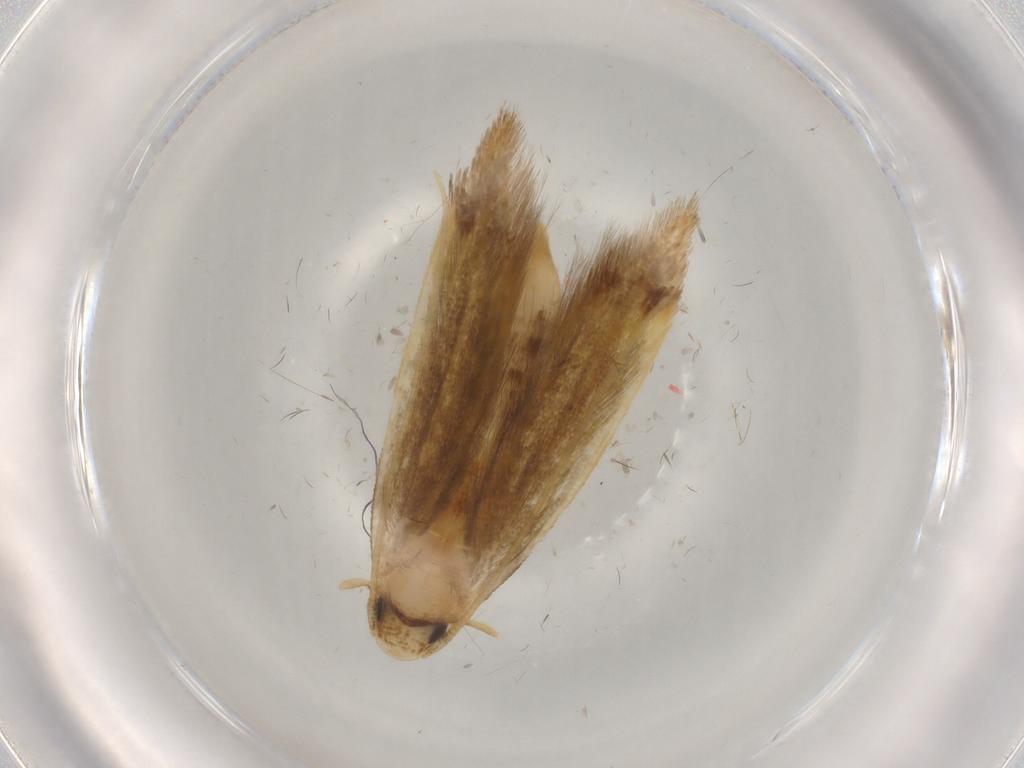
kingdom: Animalia
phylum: Arthropoda
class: Insecta
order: Lepidoptera
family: Tineidae
